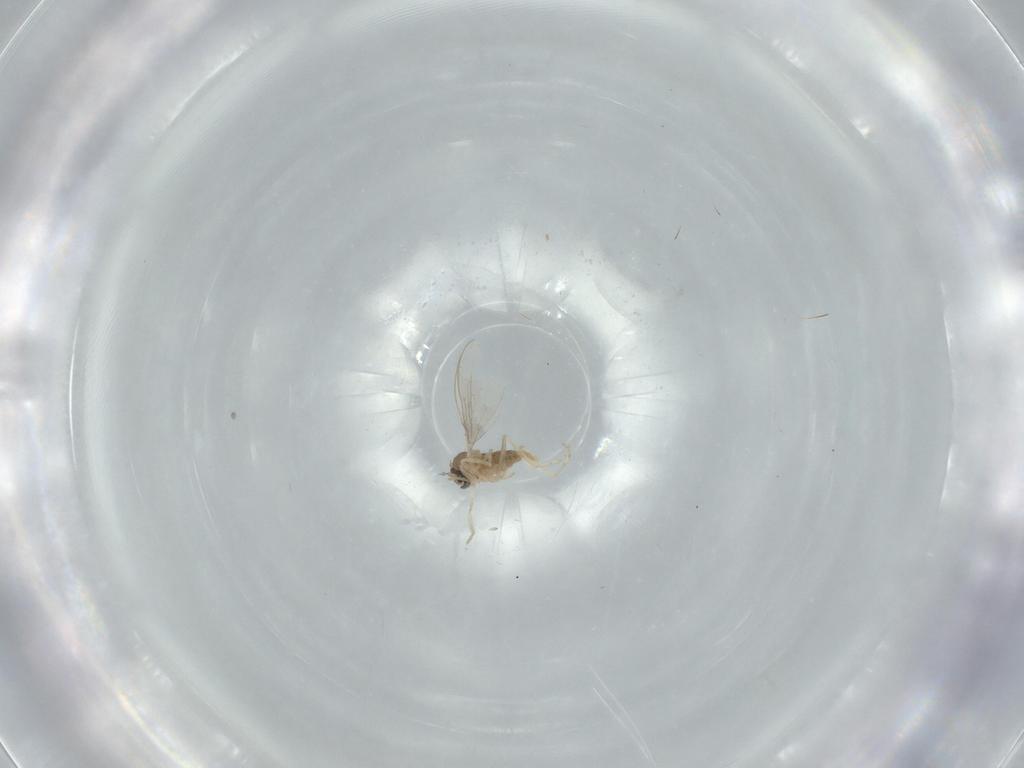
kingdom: Animalia
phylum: Arthropoda
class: Insecta
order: Diptera
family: Cecidomyiidae
